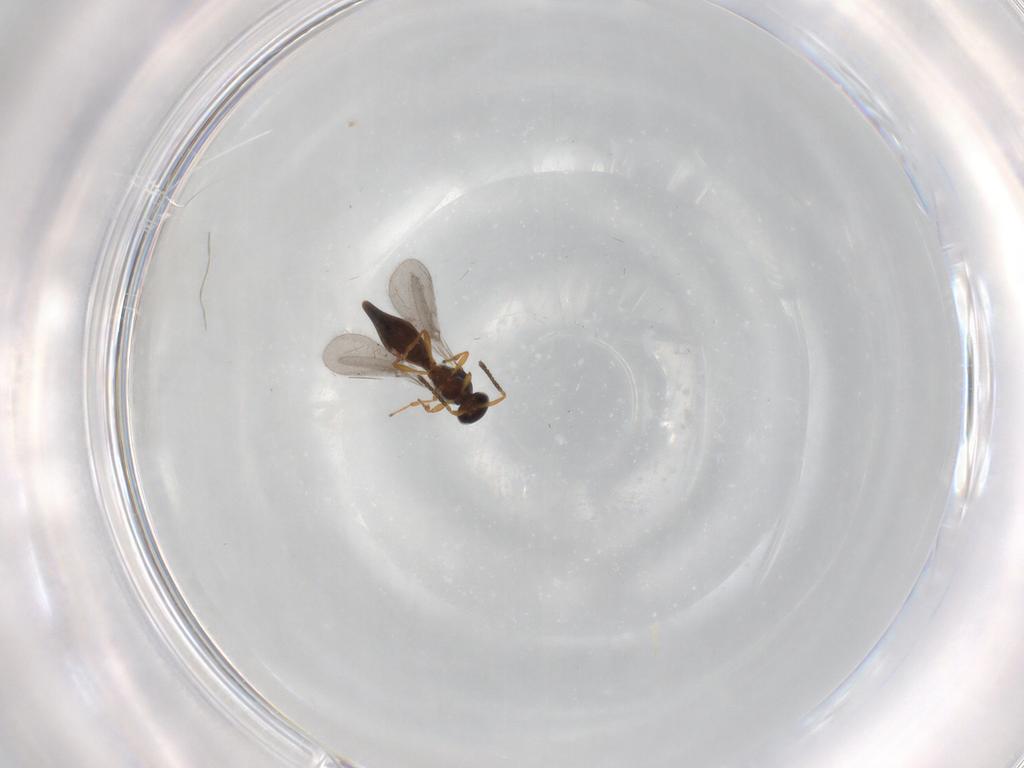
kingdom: Animalia
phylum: Arthropoda
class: Insecta
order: Hymenoptera
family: Platygastridae
